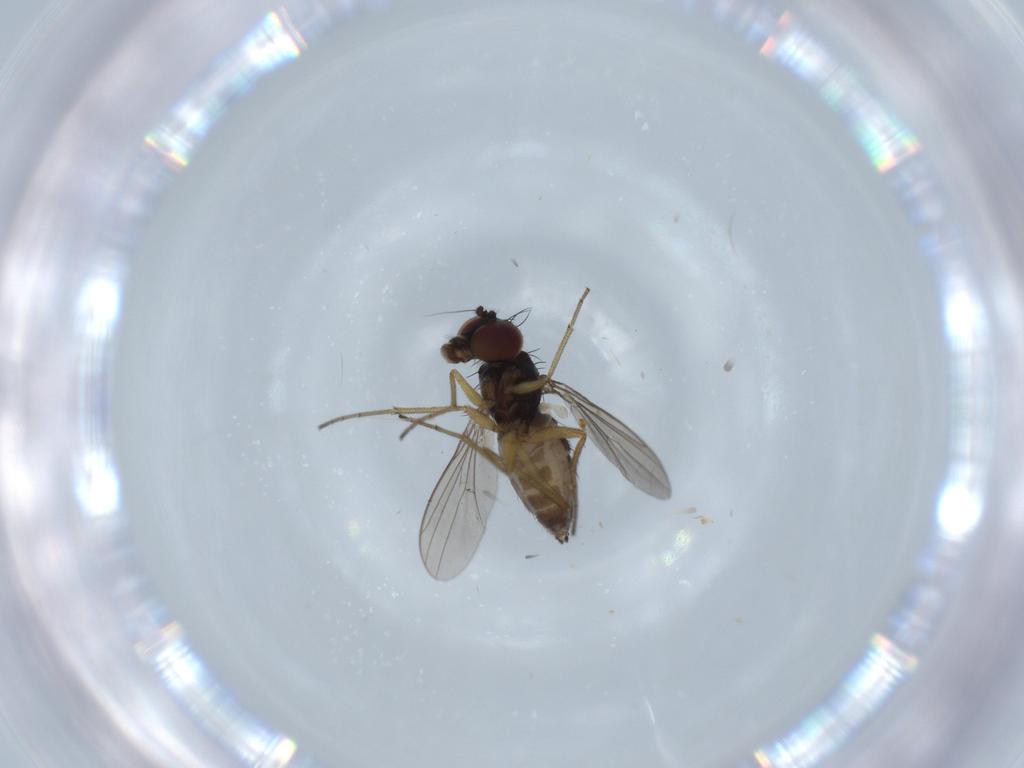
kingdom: Animalia
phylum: Arthropoda
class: Insecta
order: Diptera
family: Dolichopodidae
